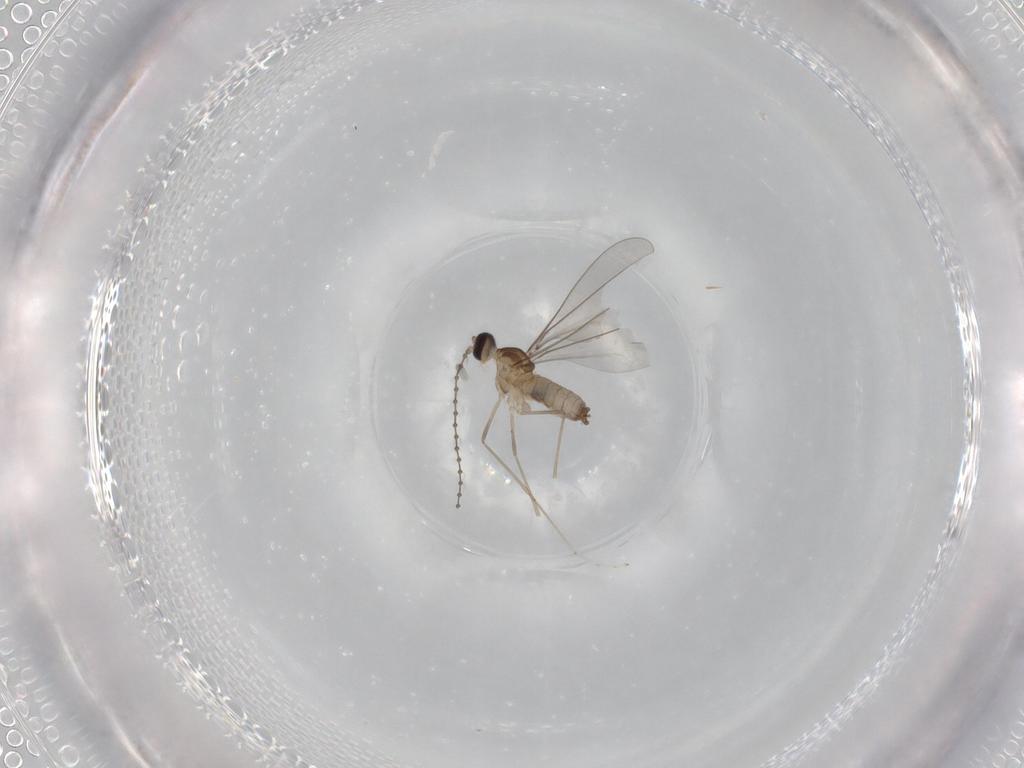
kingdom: Animalia
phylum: Arthropoda
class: Insecta
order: Diptera
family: Cecidomyiidae
